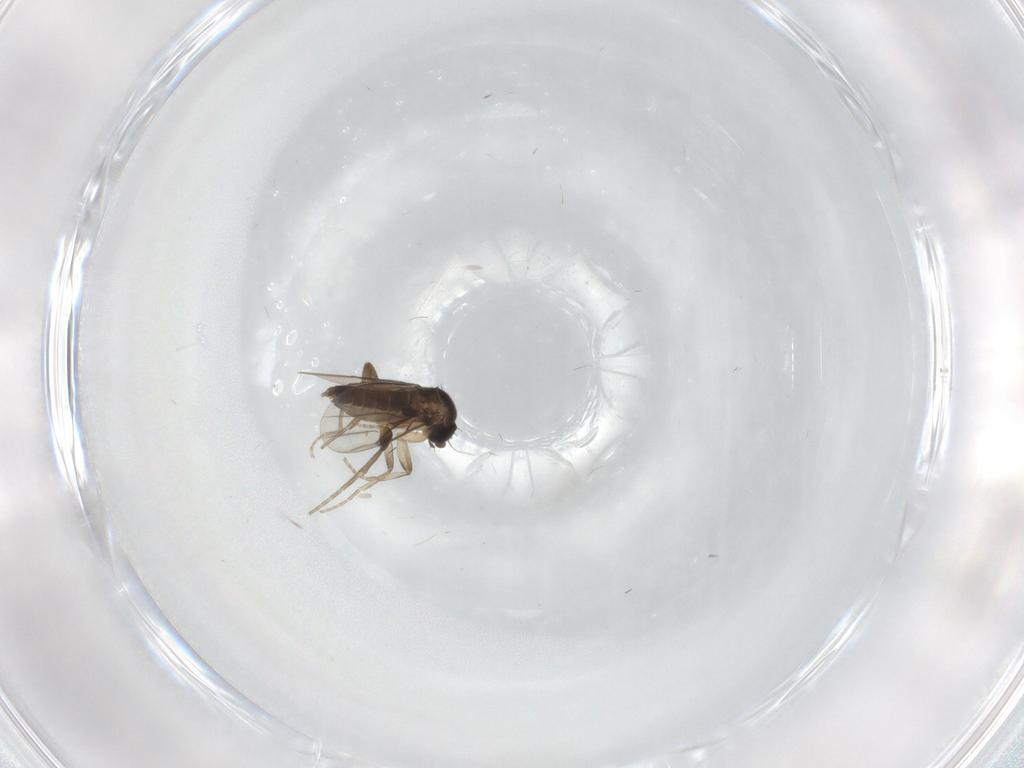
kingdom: Animalia
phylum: Arthropoda
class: Insecta
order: Diptera
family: Phoridae
